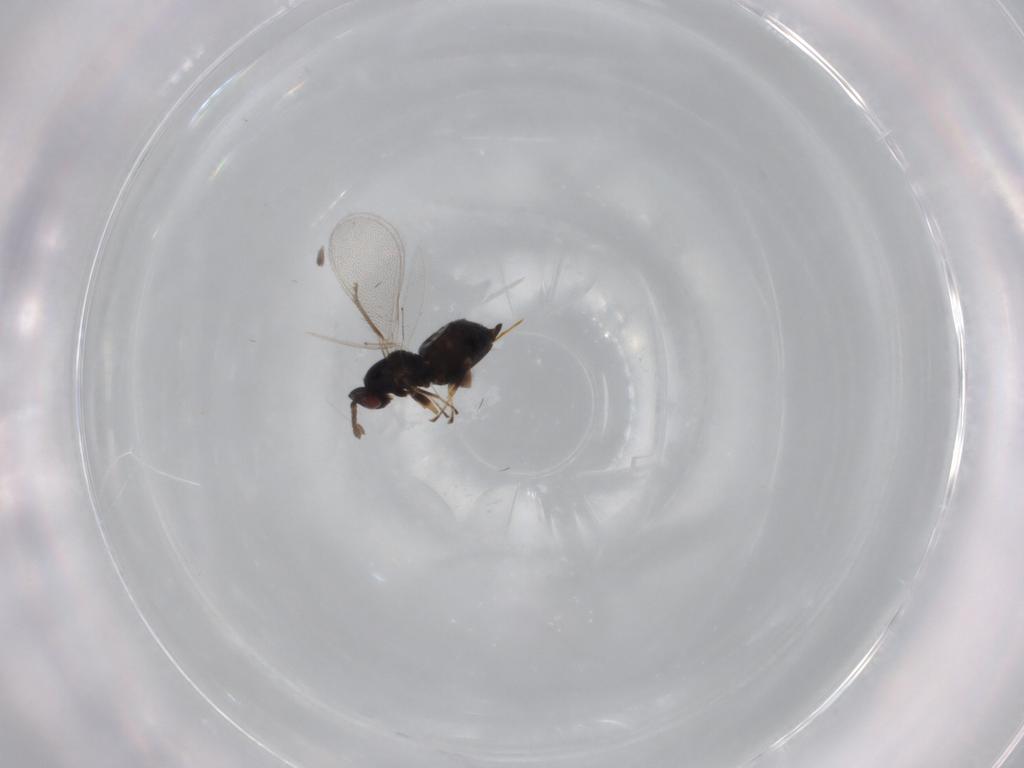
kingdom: Animalia
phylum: Arthropoda
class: Insecta
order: Hymenoptera
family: Eulophidae
